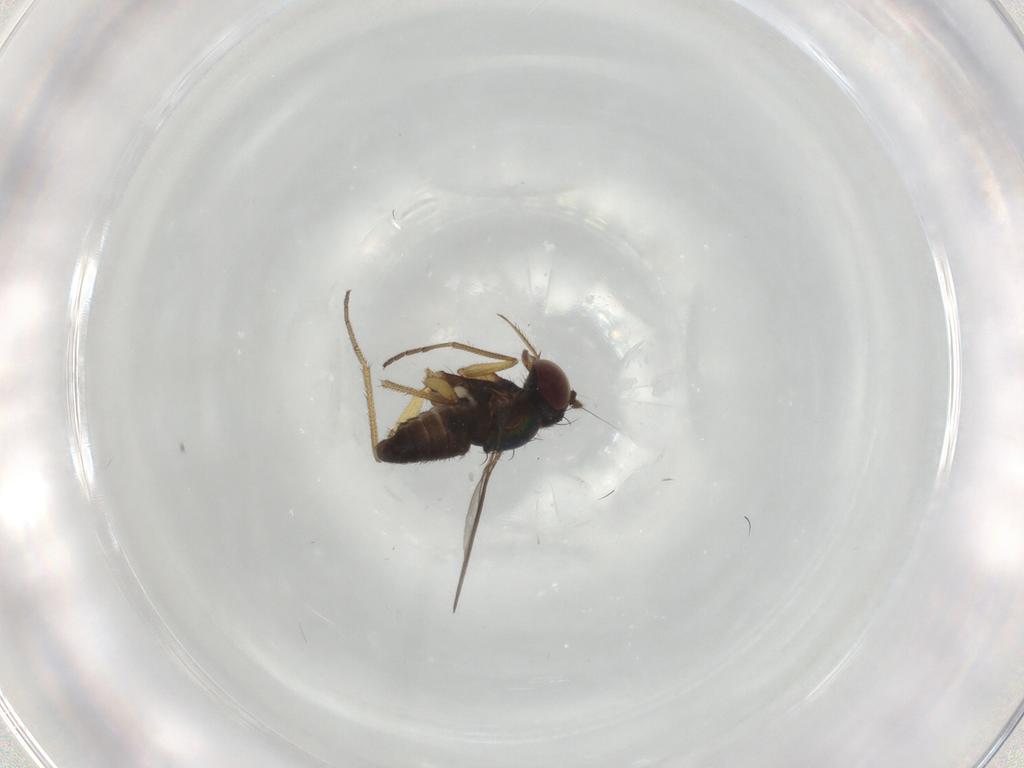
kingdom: Animalia
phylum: Arthropoda
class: Insecta
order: Diptera
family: Dolichopodidae
